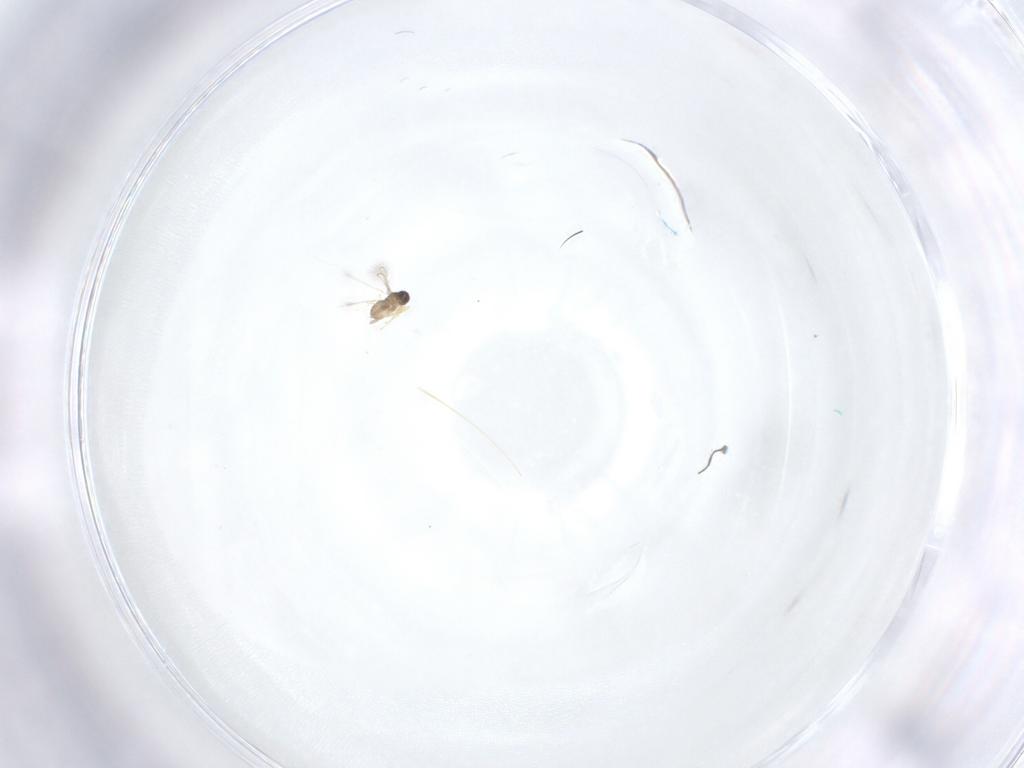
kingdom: Animalia
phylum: Arthropoda
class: Insecta
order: Hymenoptera
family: Mymaridae
